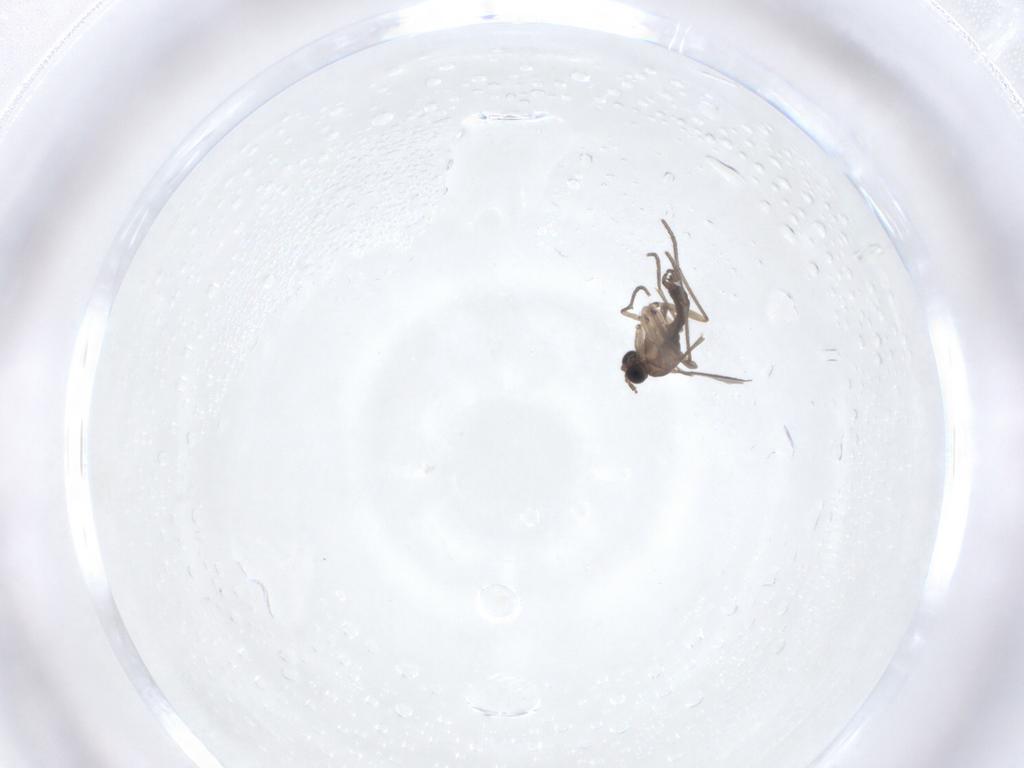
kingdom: Animalia
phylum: Arthropoda
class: Insecta
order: Diptera
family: Sciaridae
